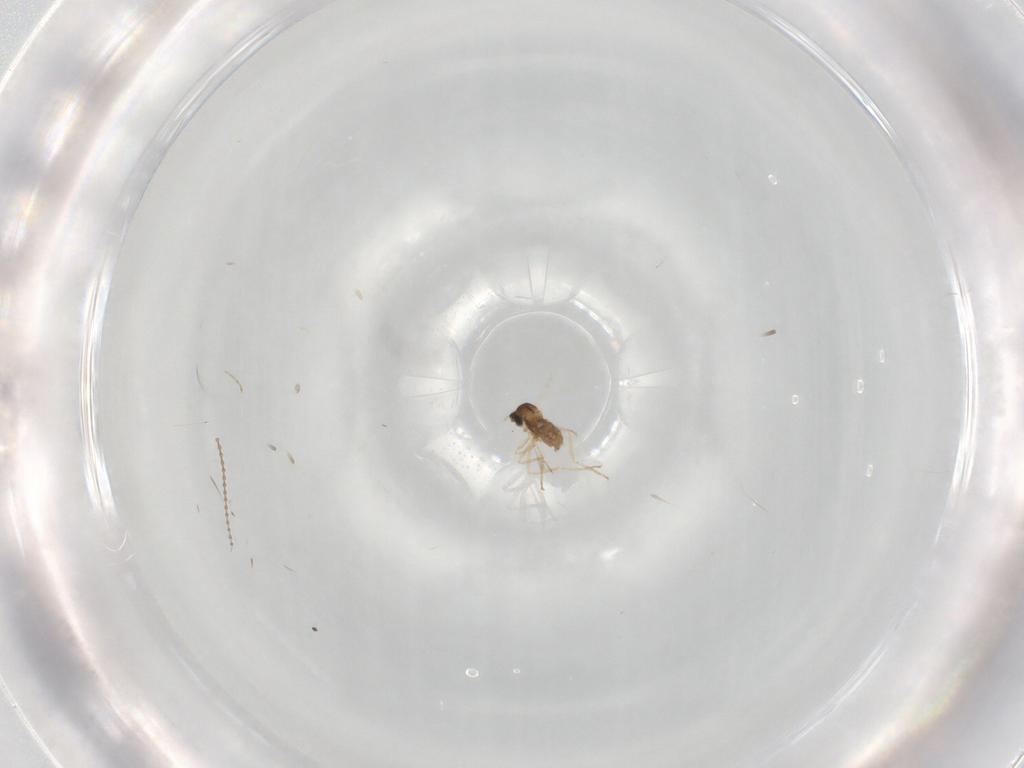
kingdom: Animalia
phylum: Arthropoda
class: Insecta
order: Diptera
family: Cecidomyiidae
